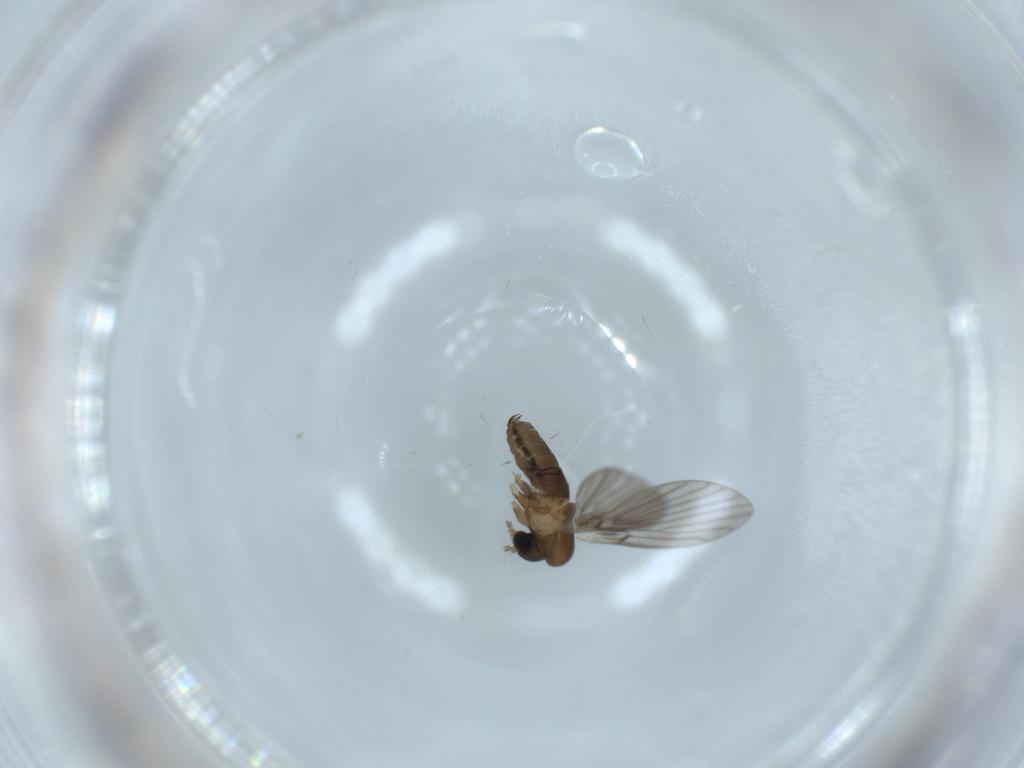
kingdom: Animalia
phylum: Arthropoda
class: Insecta
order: Diptera
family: Psychodidae
